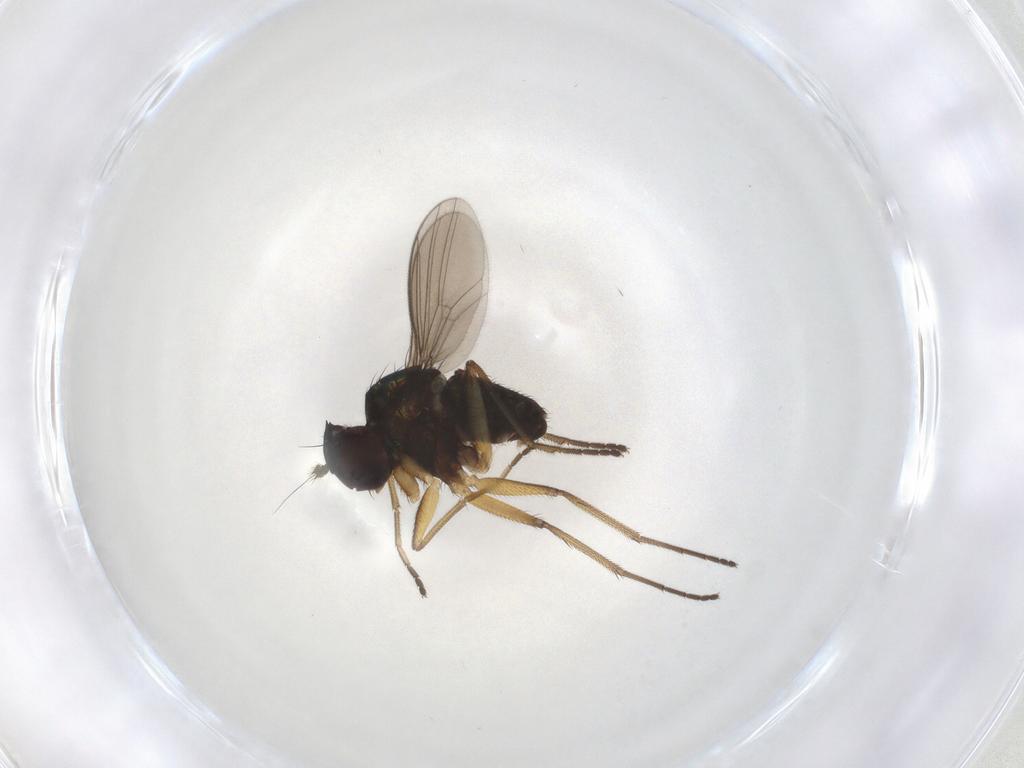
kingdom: Animalia
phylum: Arthropoda
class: Insecta
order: Diptera
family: Dolichopodidae
